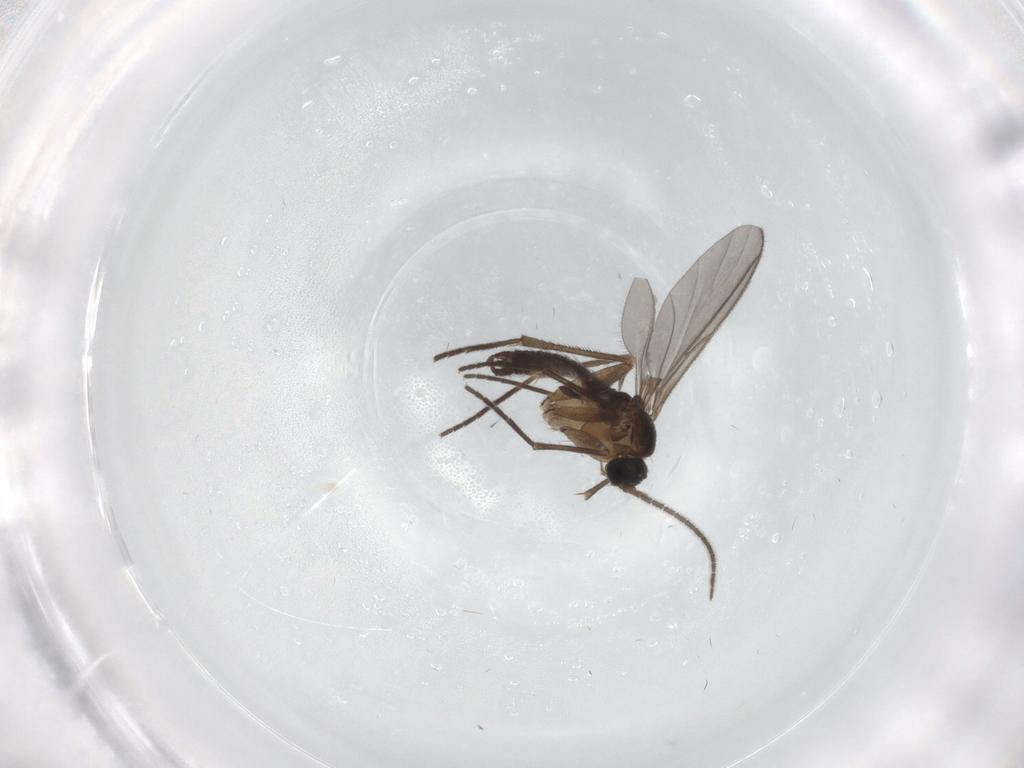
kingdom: Animalia
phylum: Arthropoda
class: Insecta
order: Diptera
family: Sciaridae
